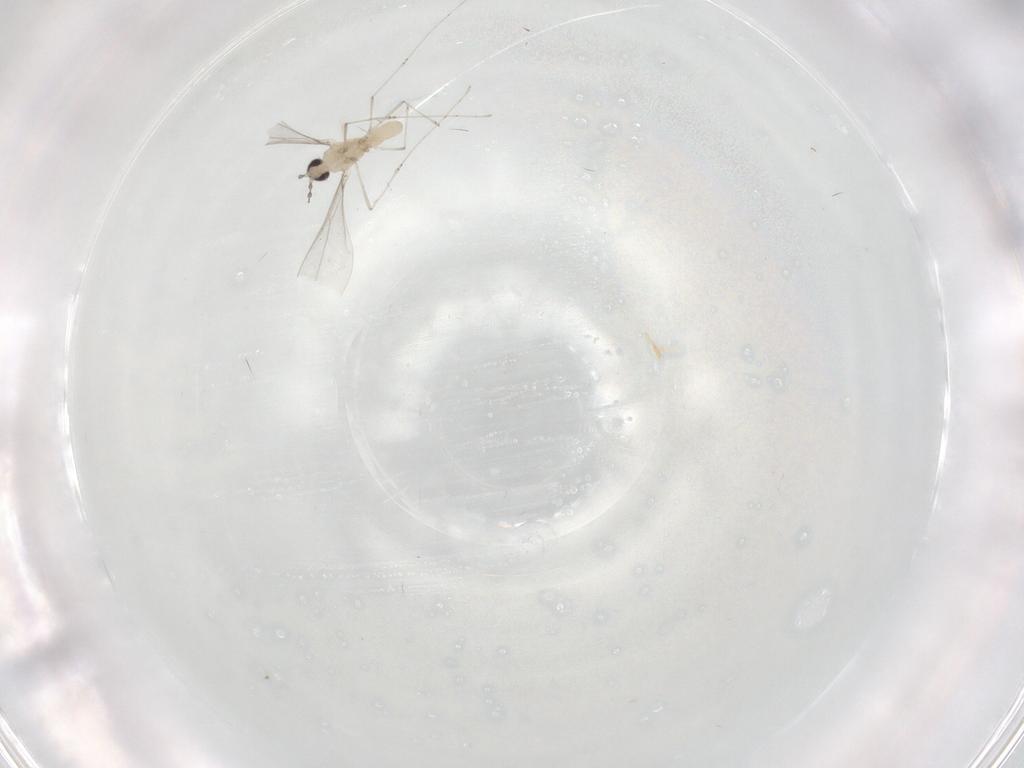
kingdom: Animalia
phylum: Arthropoda
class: Insecta
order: Diptera
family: Cecidomyiidae
